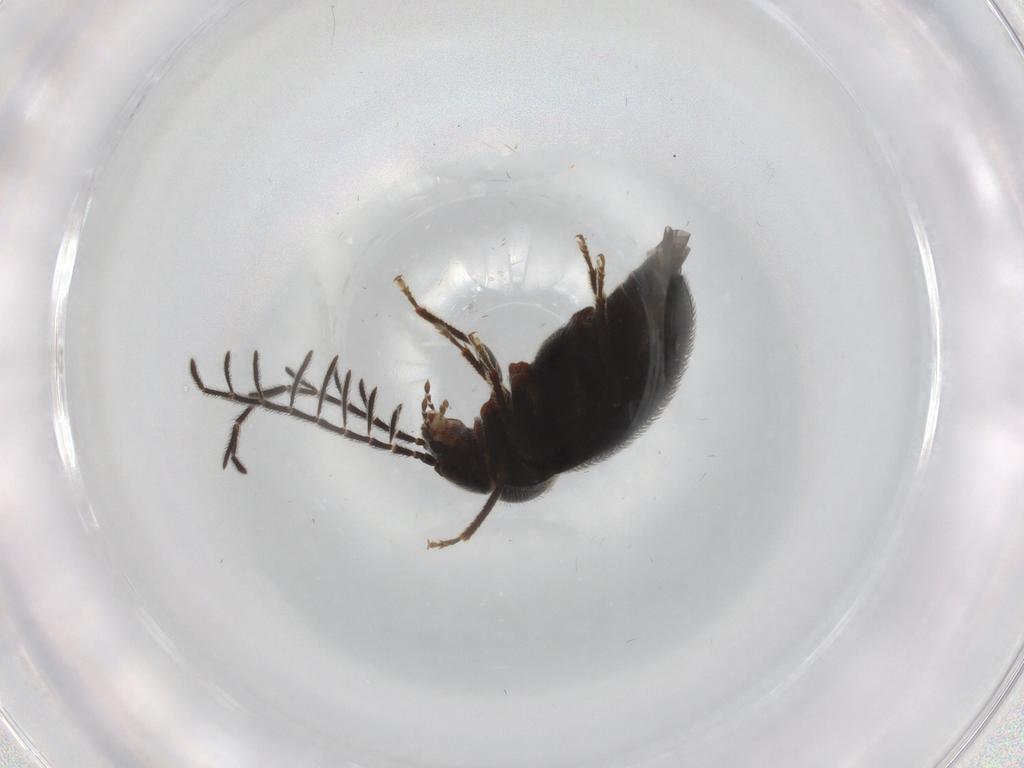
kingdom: Animalia
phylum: Arthropoda
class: Insecta
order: Coleoptera
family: Ptilodactylidae
